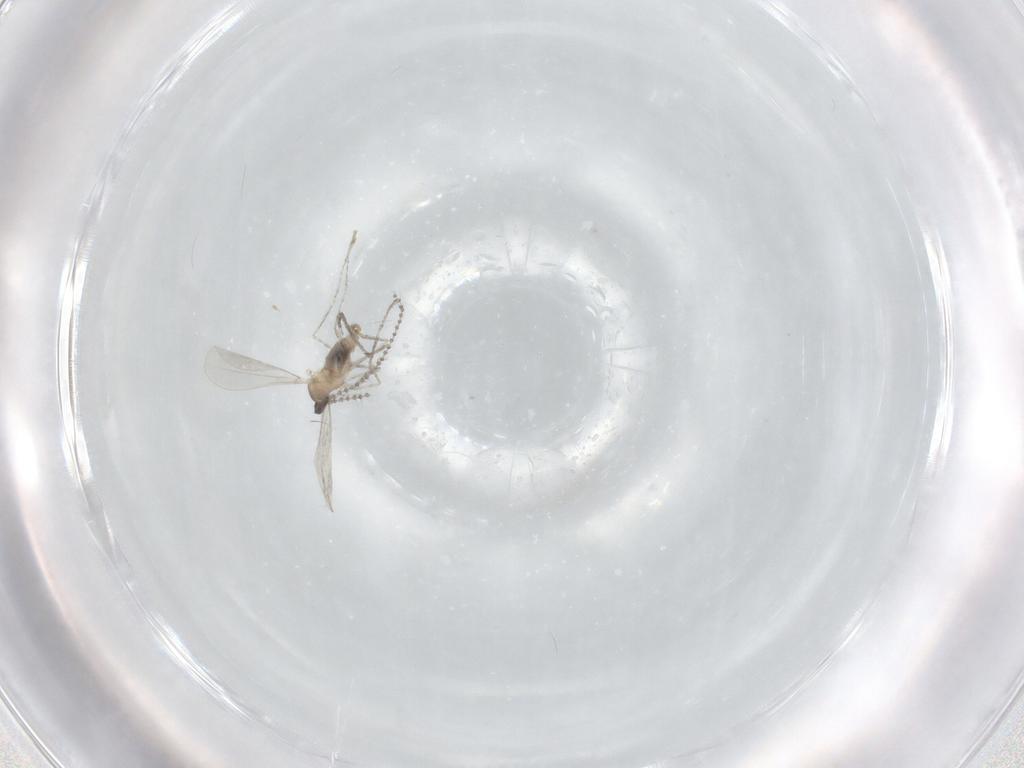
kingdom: Animalia
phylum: Arthropoda
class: Insecta
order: Diptera
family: Cecidomyiidae
